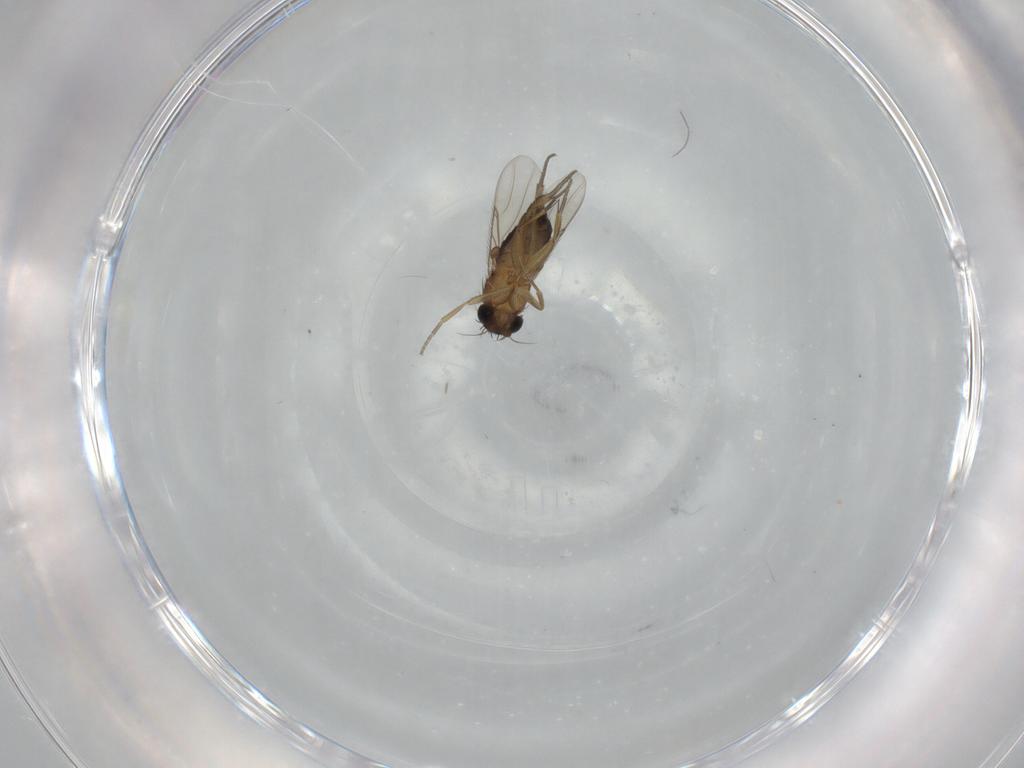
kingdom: Animalia
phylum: Arthropoda
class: Insecta
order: Diptera
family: Phoridae
